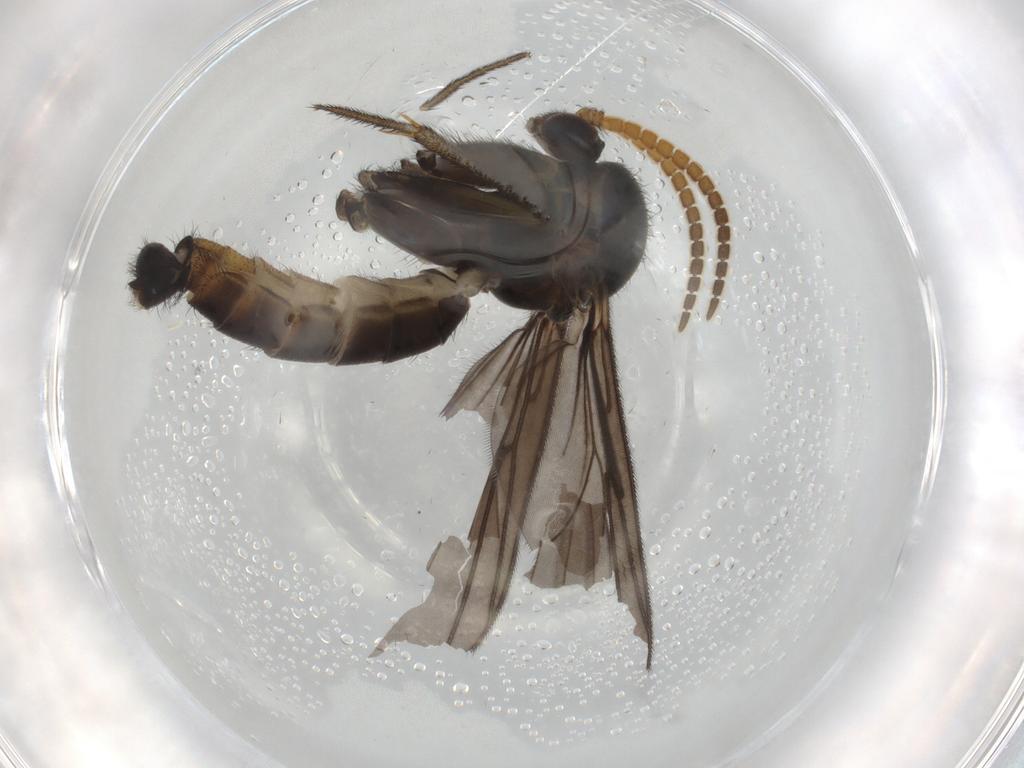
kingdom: Animalia
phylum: Arthropoda
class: Insecta
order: Diptera
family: Mycetophilidae
